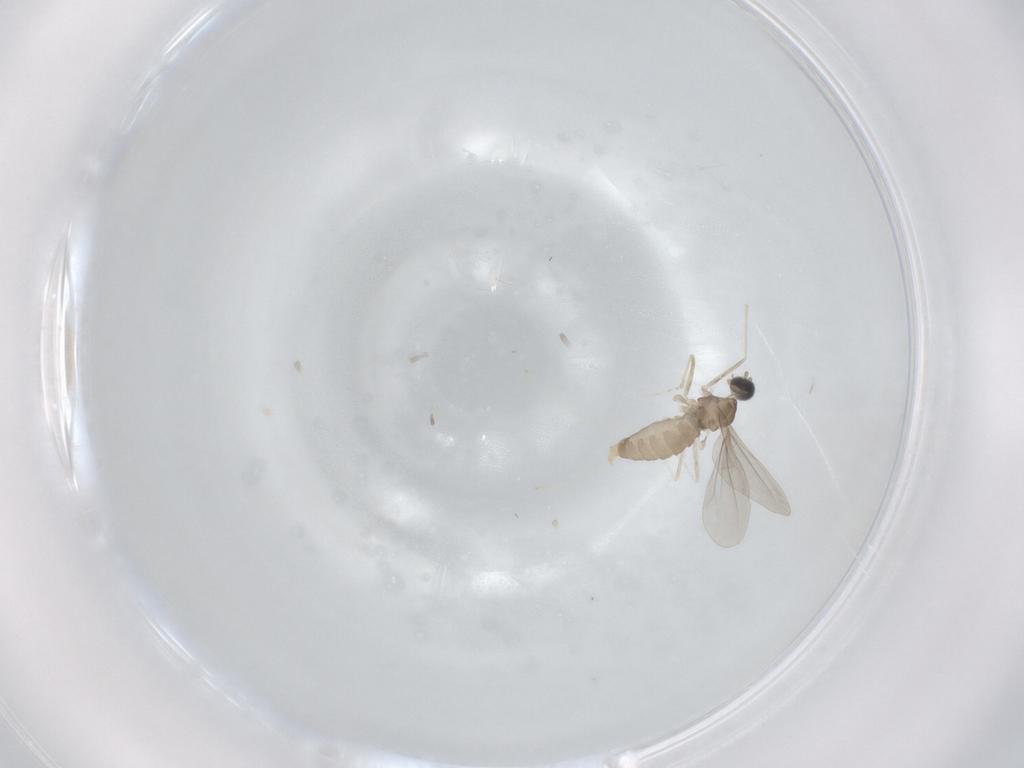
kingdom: Animalia
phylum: Arthropoda
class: Insecta
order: Diptera
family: Cecidomyiidae
